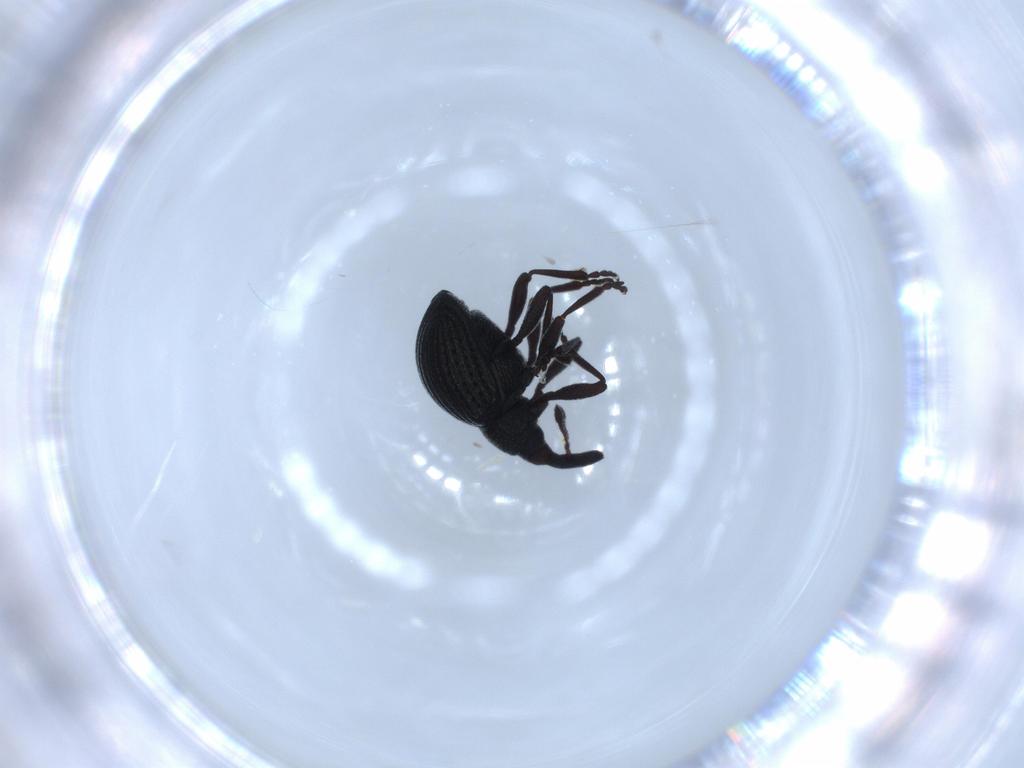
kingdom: Animalia
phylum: Arthropoda
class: Insecta
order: Coleoptera
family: Brentidae
